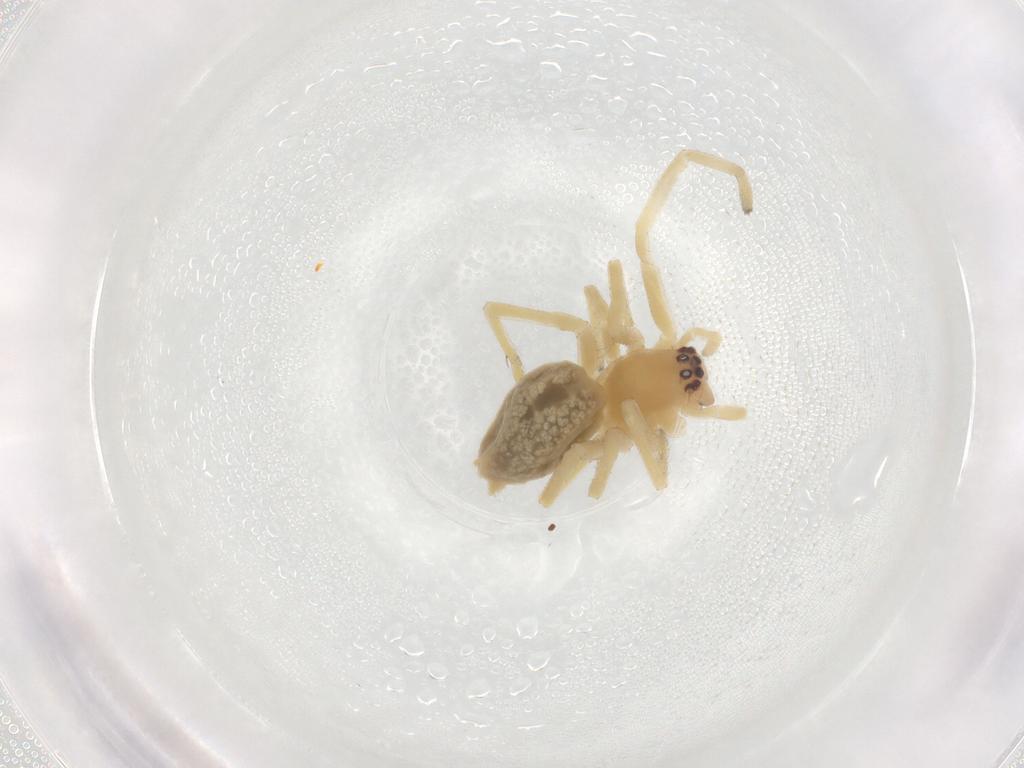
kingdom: Animalia
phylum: Arthropoda
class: Arachnida
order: Araneae
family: Cheiracanthiidae
